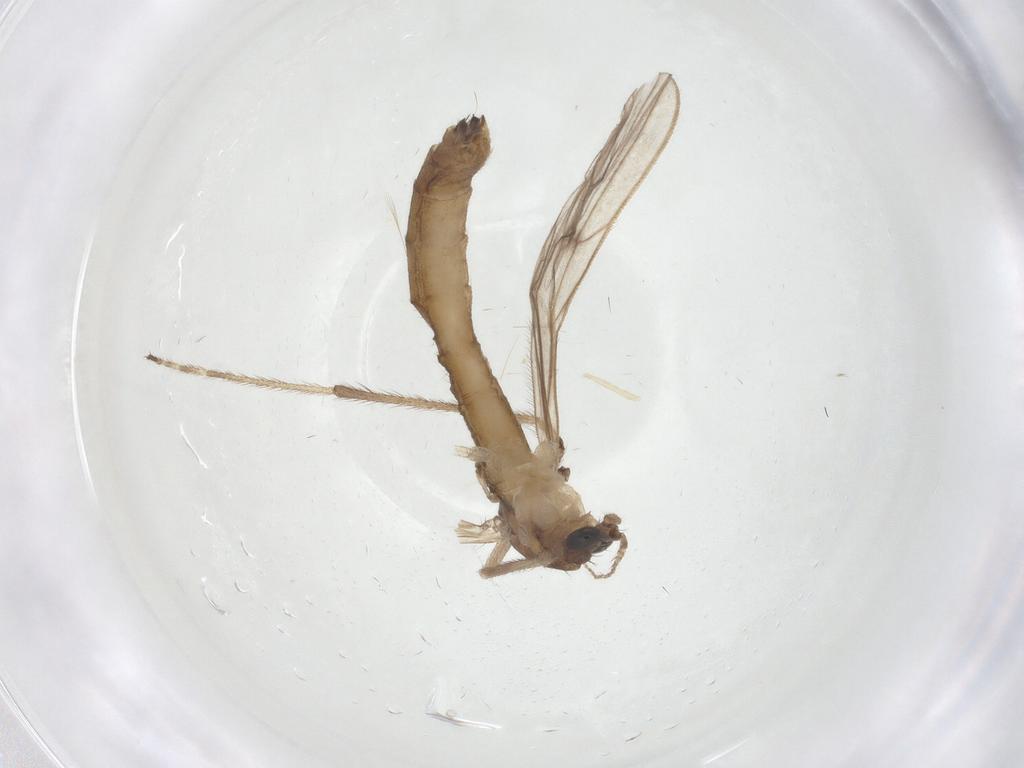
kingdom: Animalia
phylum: Arthropoda
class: Insecta
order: Diptera
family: Limoniidae
